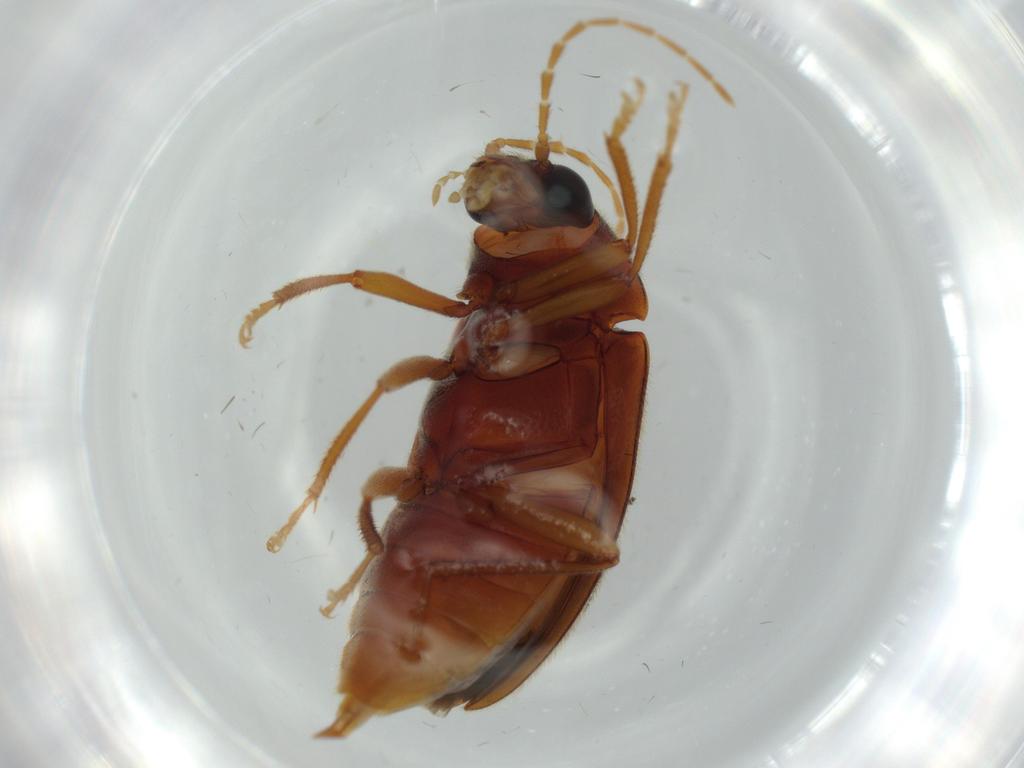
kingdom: Animalia
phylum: Arthropoda
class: Insecta
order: Coleoptera
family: Ptilodactylidae
